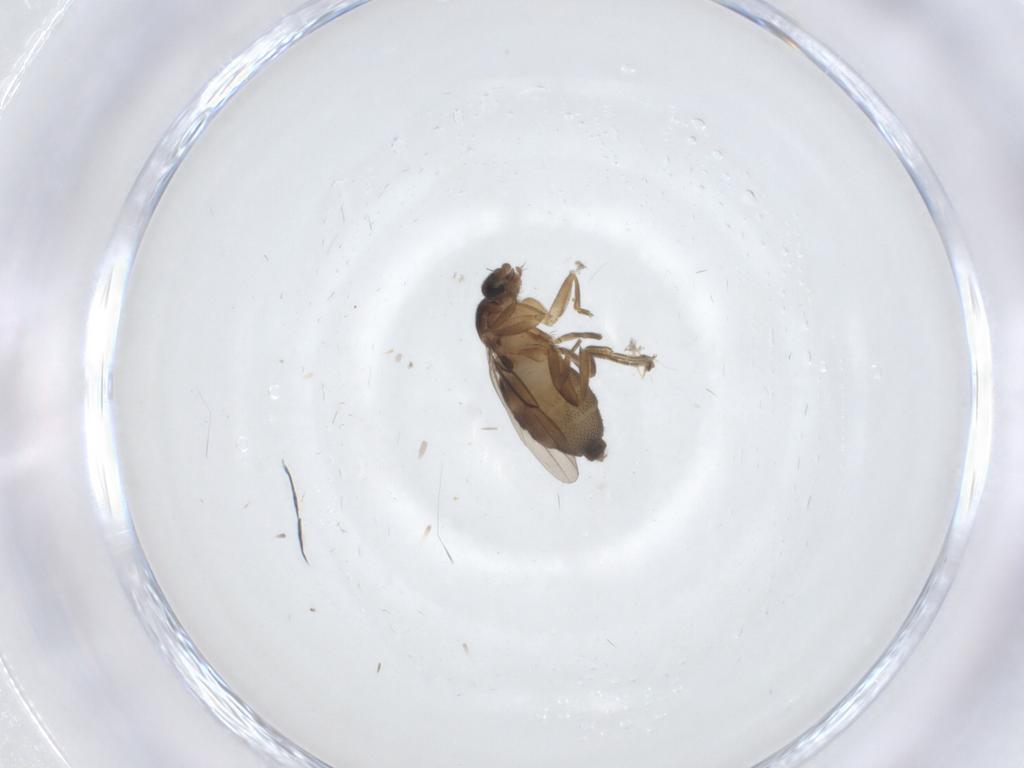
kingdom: Animalia
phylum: Arthropoda
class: Insecta
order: Diptera
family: Phoridae
